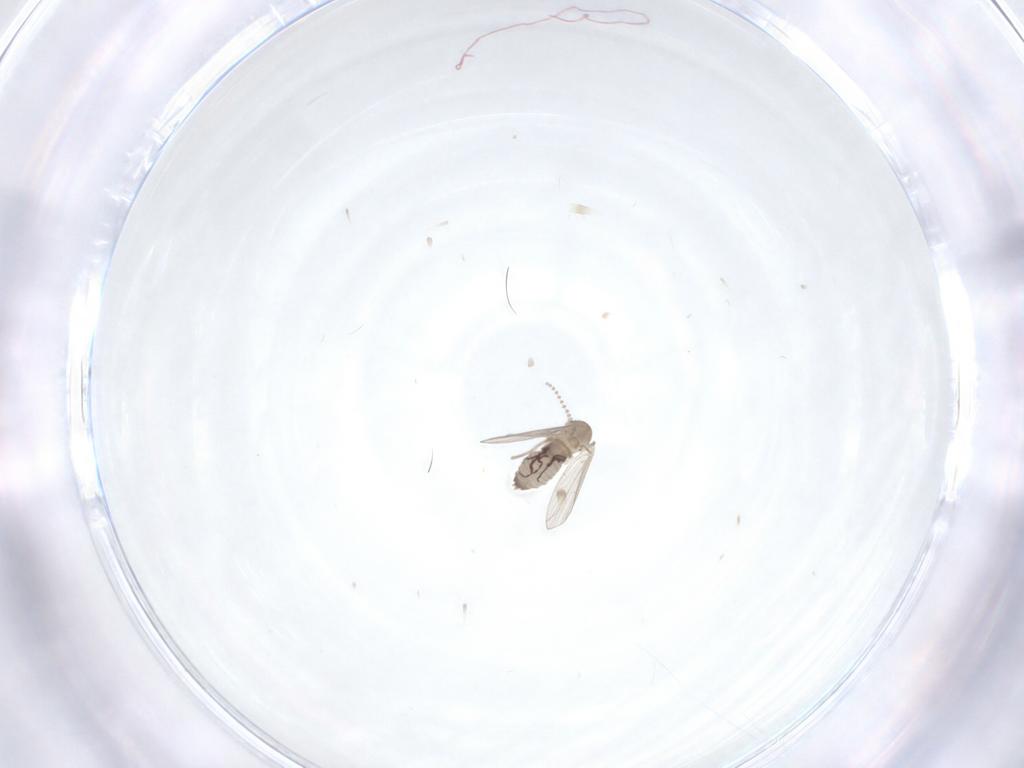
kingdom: Animalia
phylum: Arthropoda
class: Insecta
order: Diptera
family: Psychodidae
